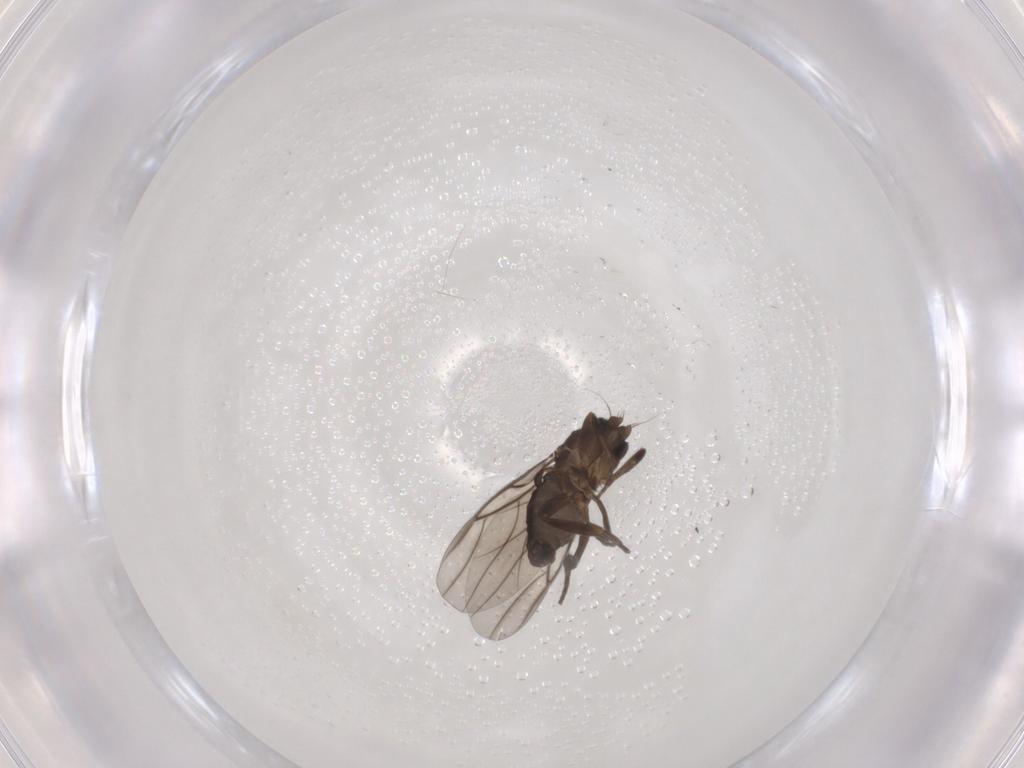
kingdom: Animalia
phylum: Arthropoda
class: Insecta
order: Diptera
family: Phoridae
